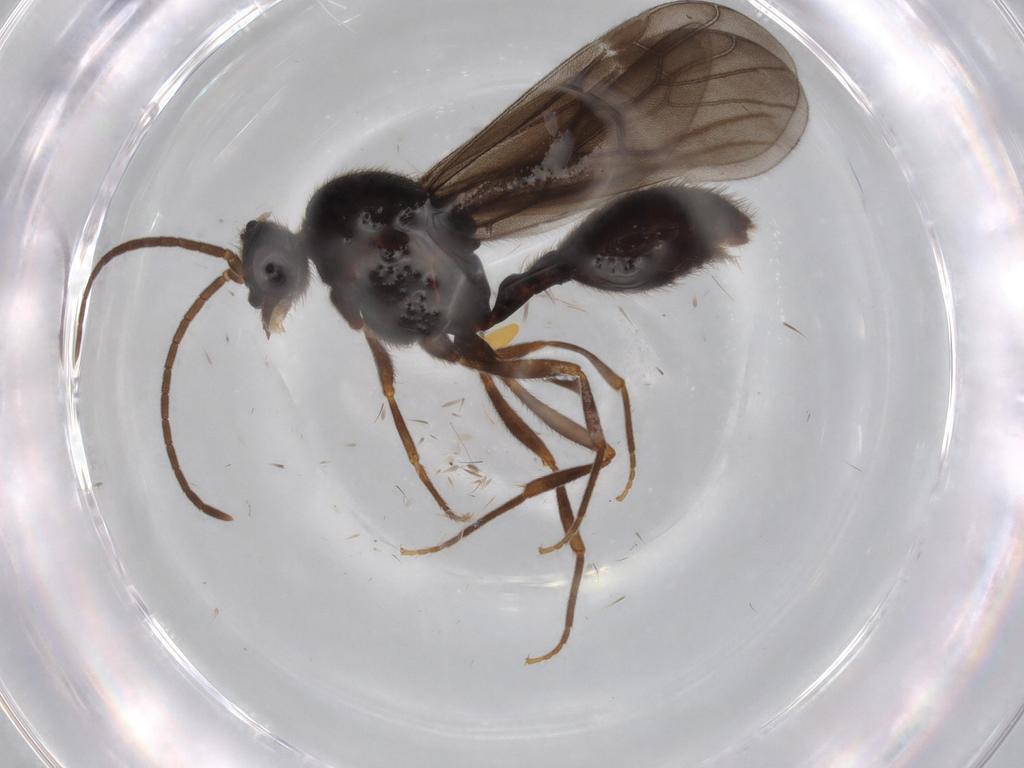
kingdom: Animalia
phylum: Arthropoda
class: Insecta
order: Hymenoptera
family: Formicidae
